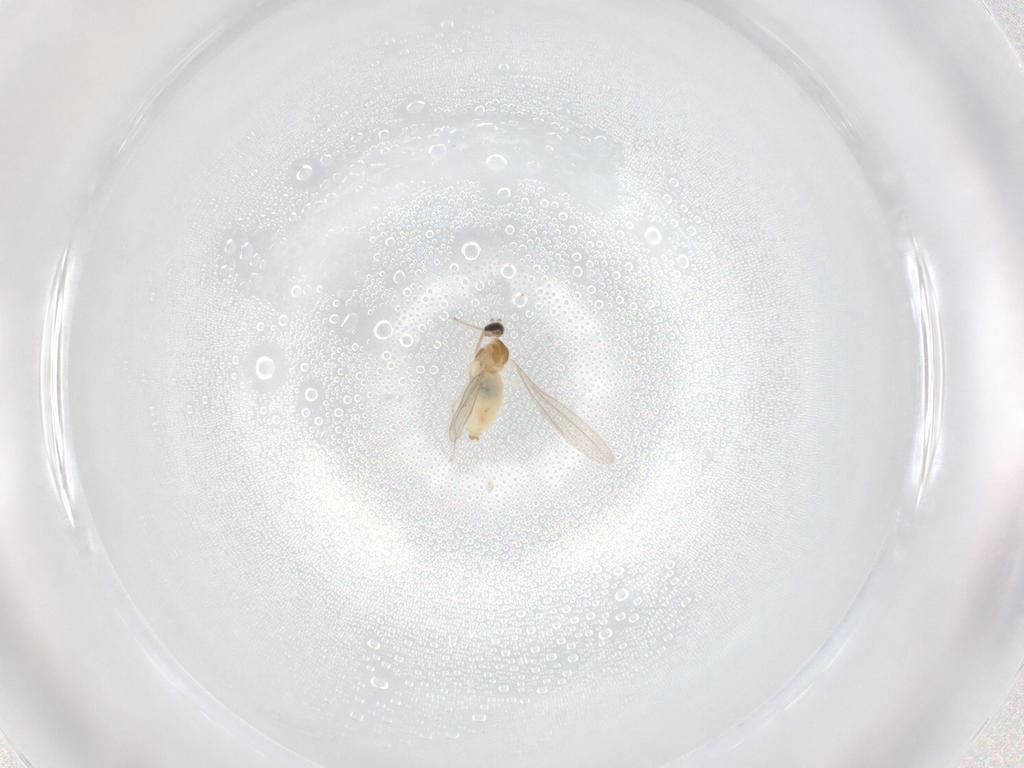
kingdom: Animalia
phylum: Arthropoda
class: Insecta
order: Diptera
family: Cecidomyiidae
